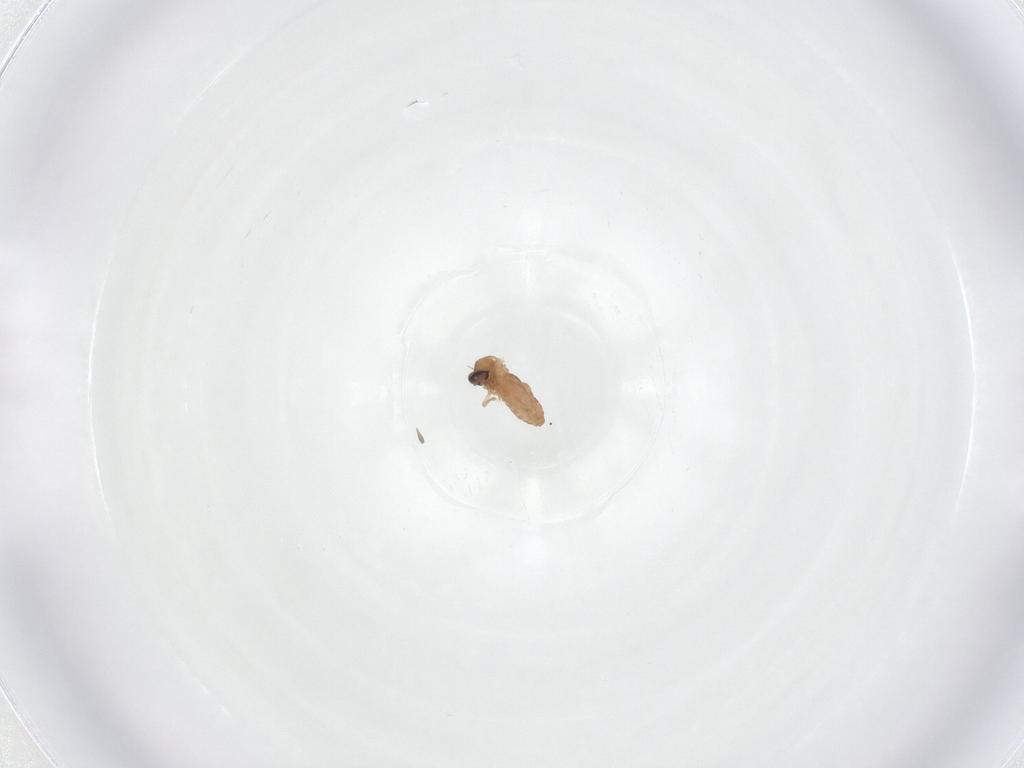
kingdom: Animalia
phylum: Arthropoda
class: Insecta
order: Diptera
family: Ceratopogonidae
